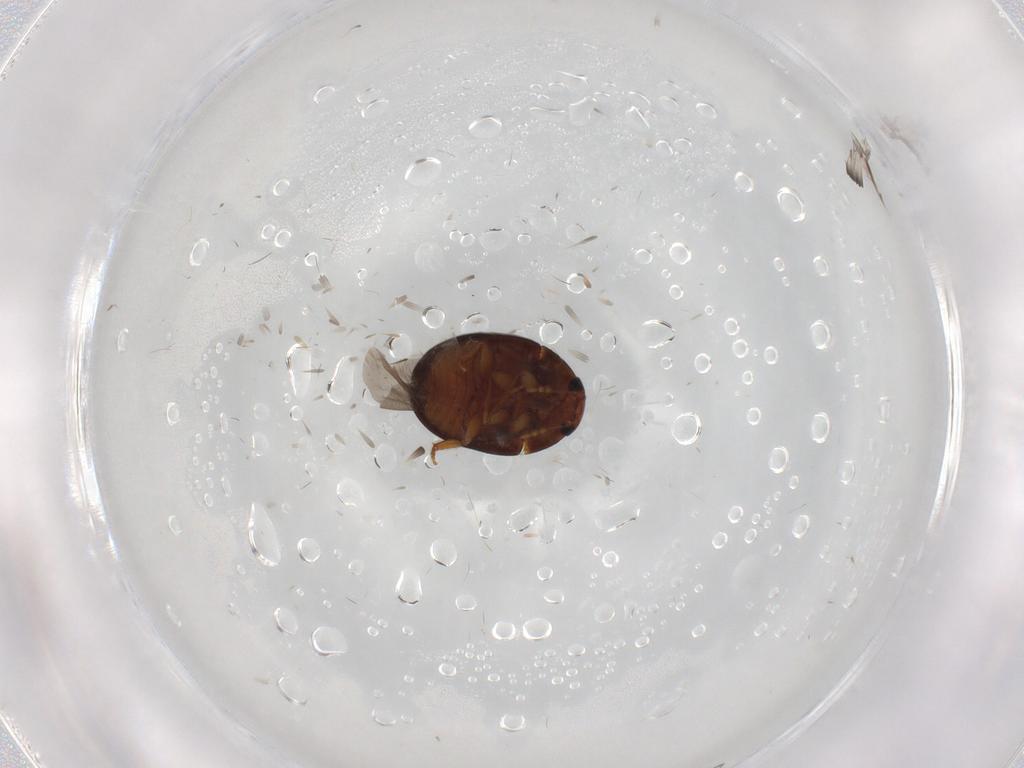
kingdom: Animalia
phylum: Arthropoda
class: Insecta
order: Coleoptera
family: Phalacridae
